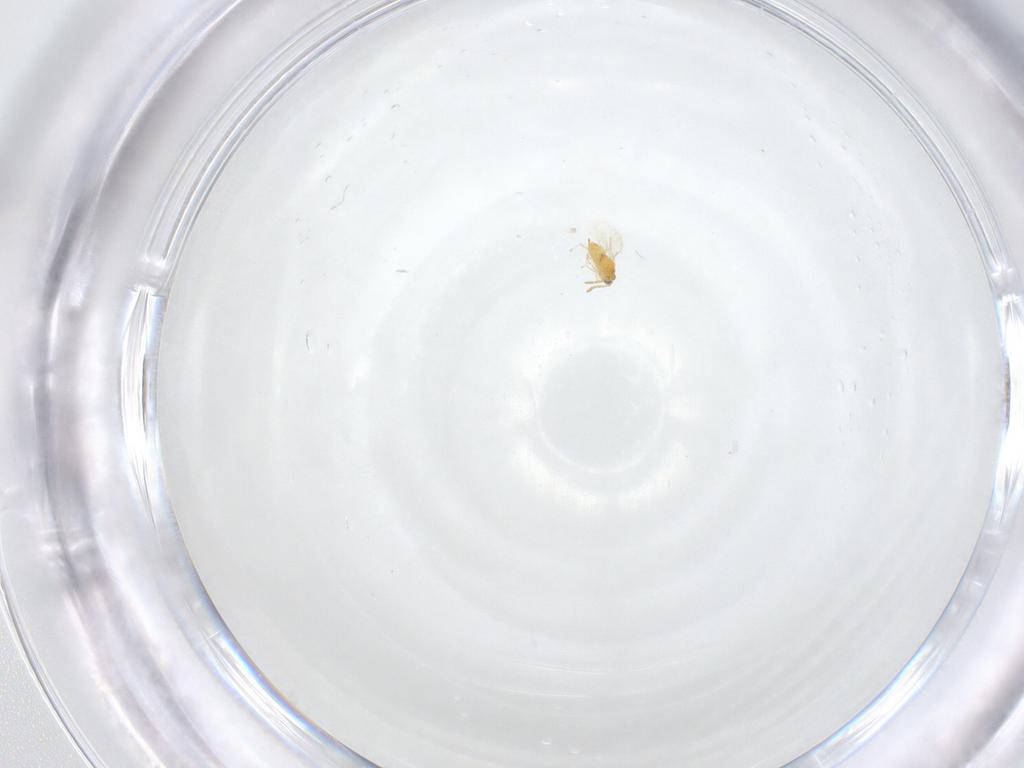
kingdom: Animalia
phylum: Arthropoda
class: Insecta
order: Hymenoptera
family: Aphelinidae
